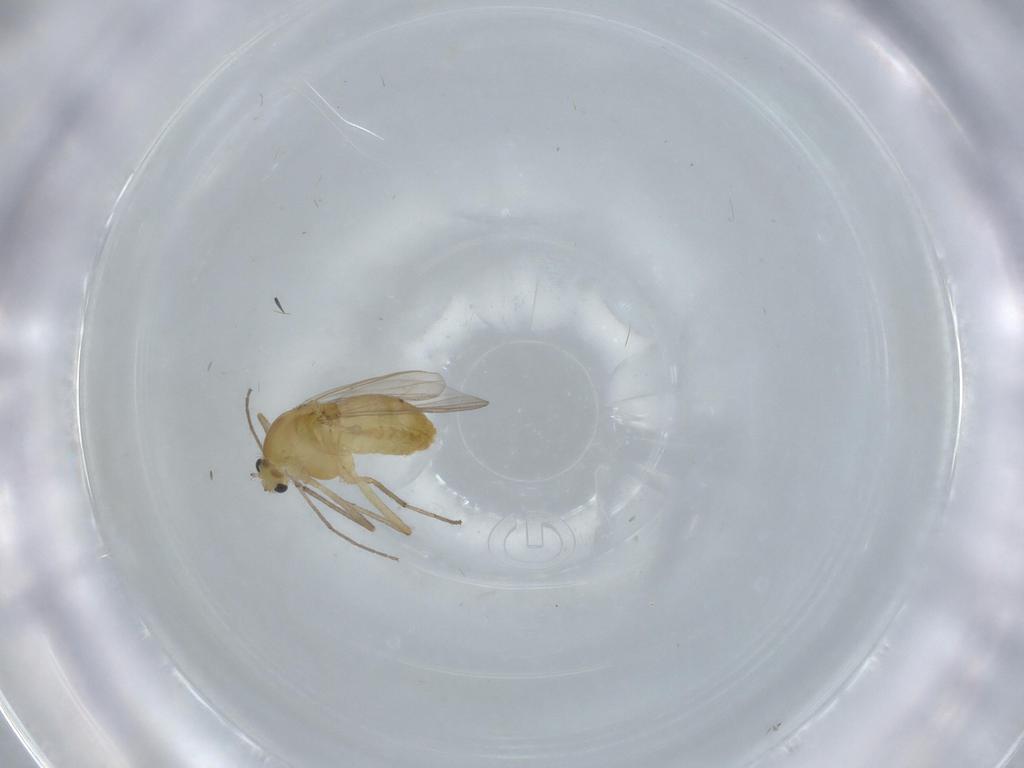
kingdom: Animalia
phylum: Arthropoda
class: Insecta
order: Diptera
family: Chironomidae
